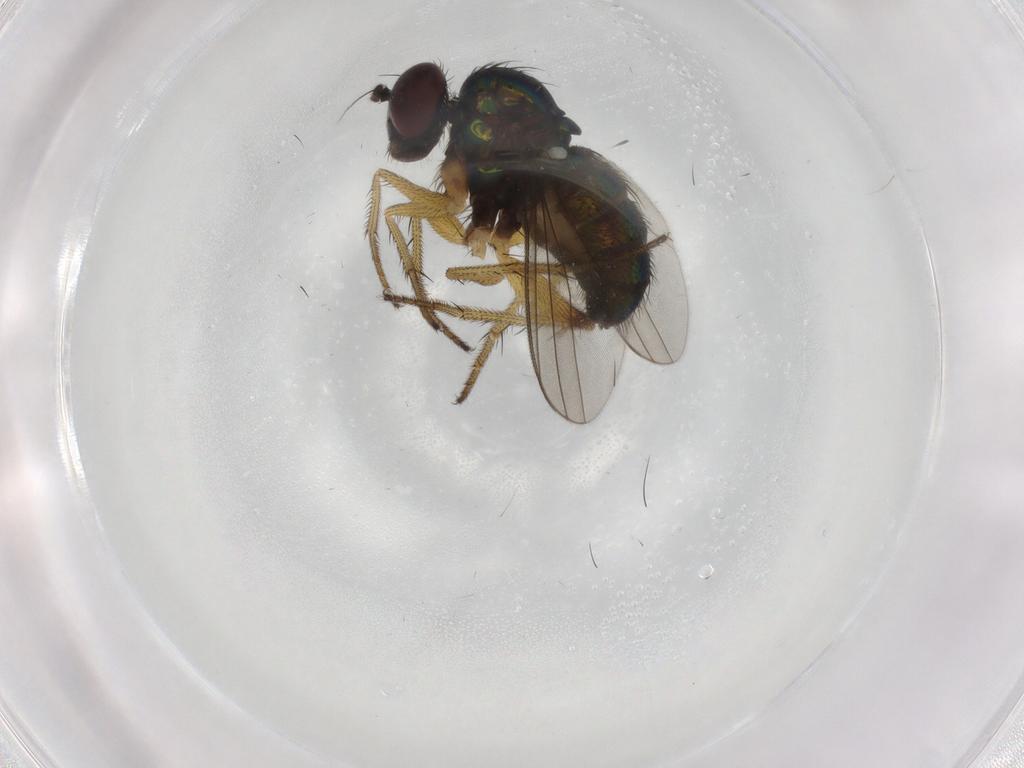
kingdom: Animalia
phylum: Arthropoda
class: Insecta
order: Diptera
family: Dolichopodidae
